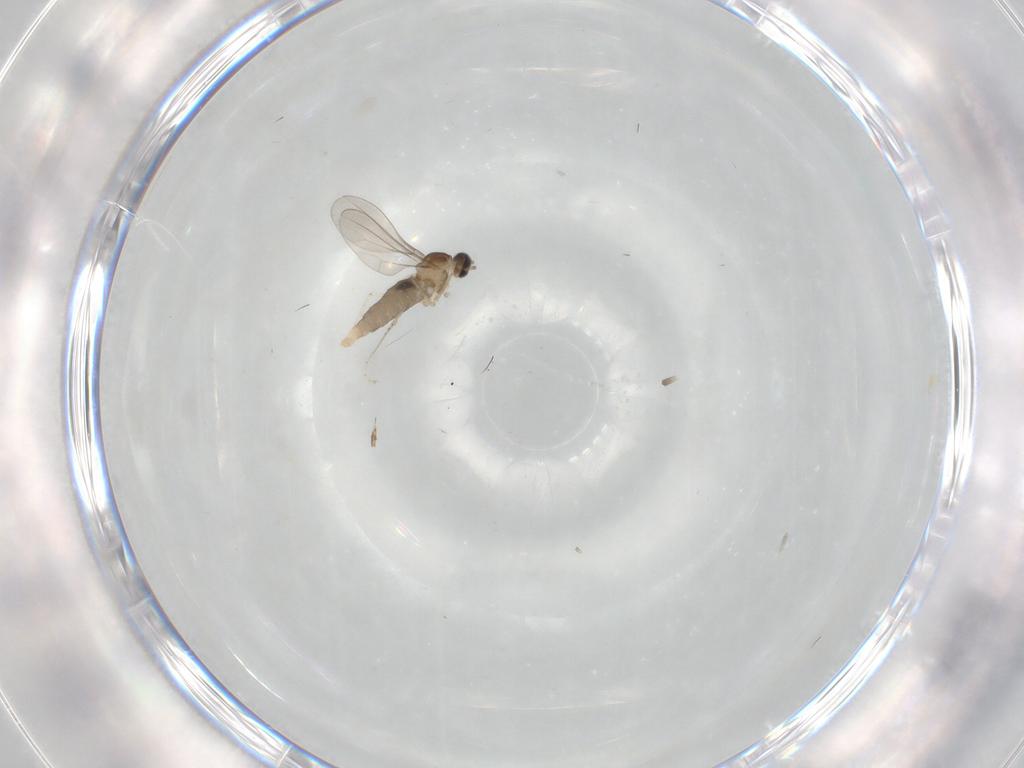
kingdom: Animalia
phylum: Arthropoda
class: Insecta
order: Diptera
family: Cecidomyiidae
